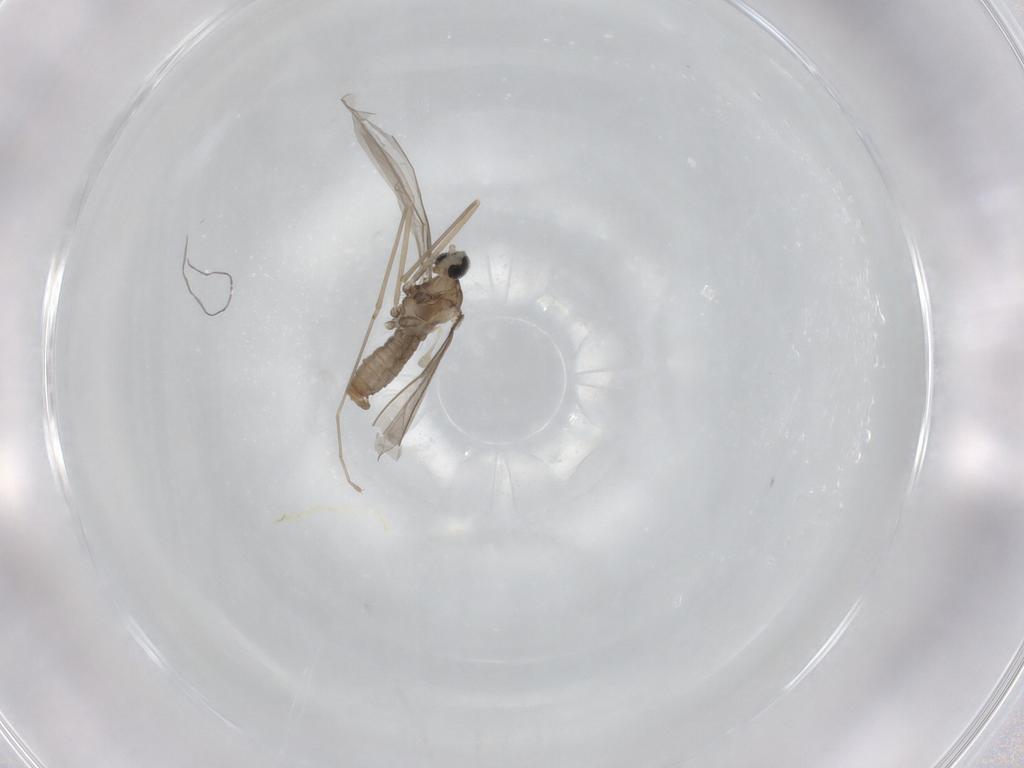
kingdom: Animalia
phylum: Arthropoda
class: Insecta
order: Diptera
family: Cecidomyiidae
